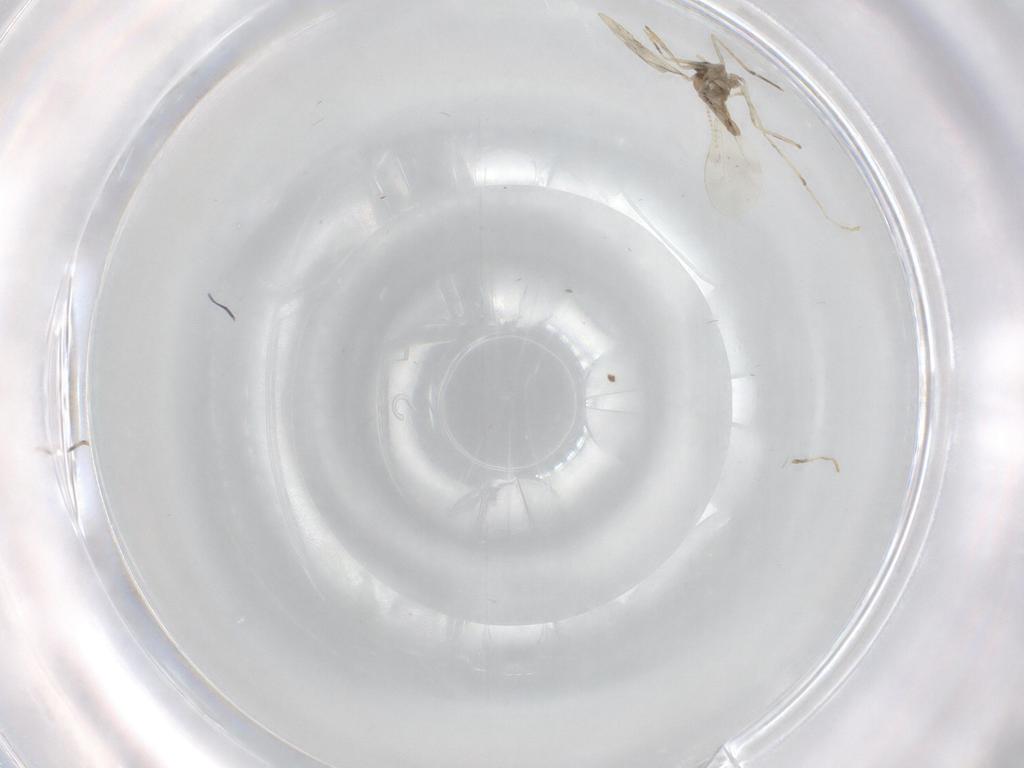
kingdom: Animalia
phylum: Arthropoda
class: Insecta
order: Diptera
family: Cecidomyiidae
